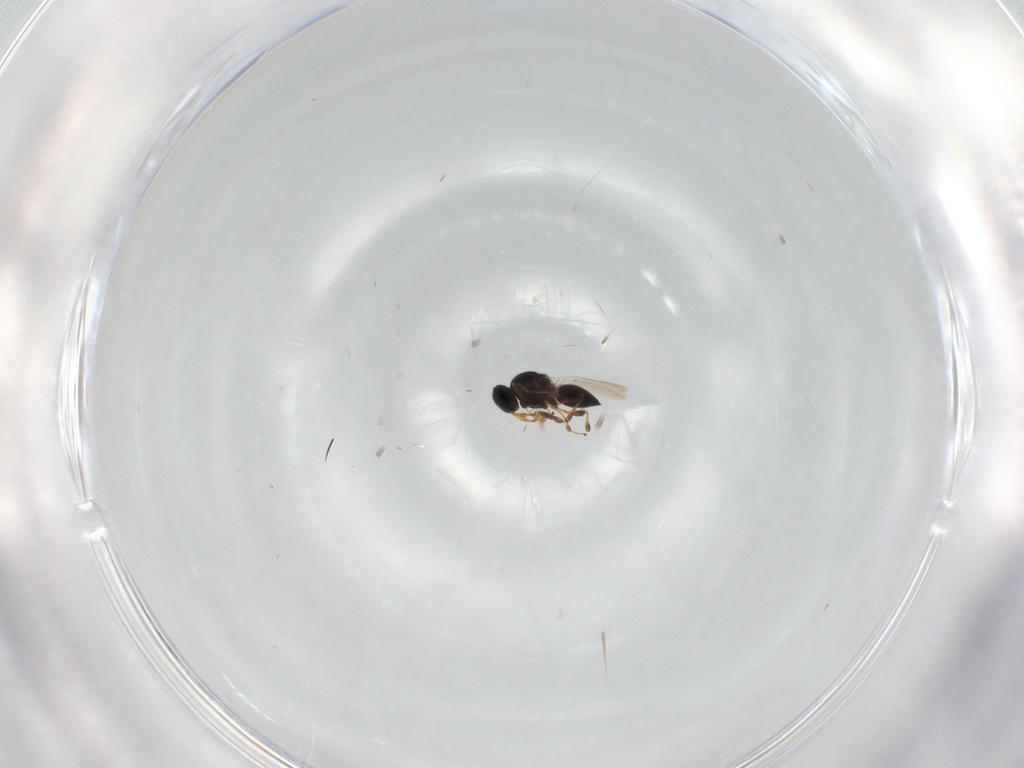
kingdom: Animalia
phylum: Arthropoda
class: Insecta
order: Hymenoptera
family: Platygastridae
